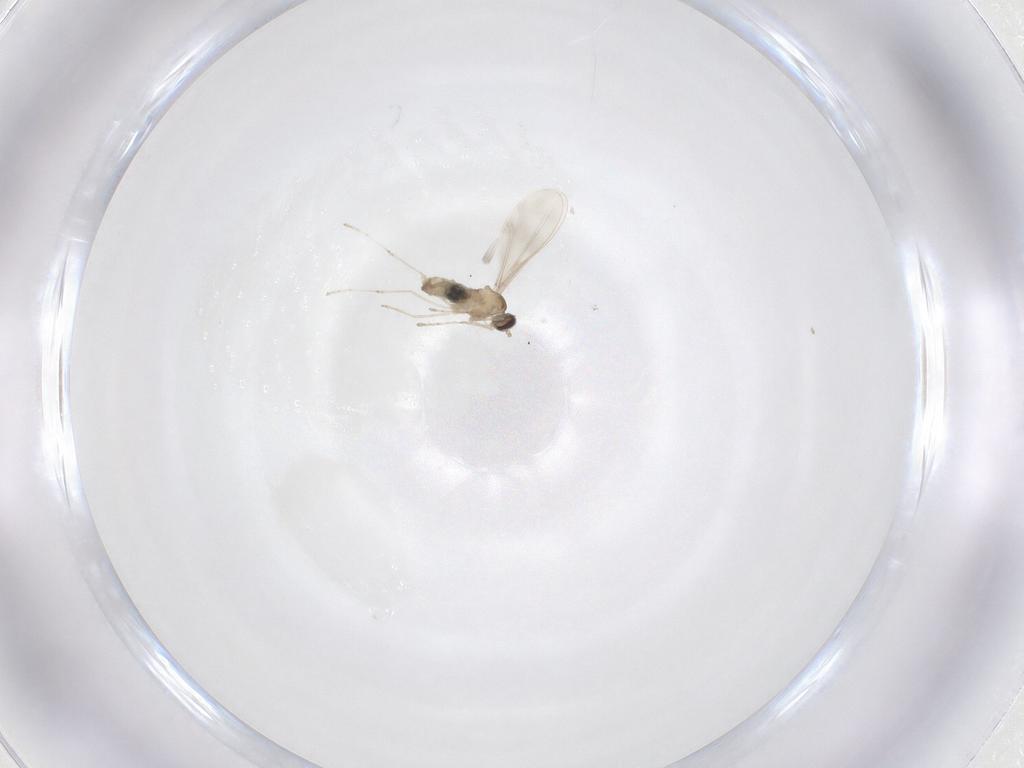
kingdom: Animalia
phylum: Arthropoda
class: Insecta
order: Diptera
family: Cecidomyiidae
